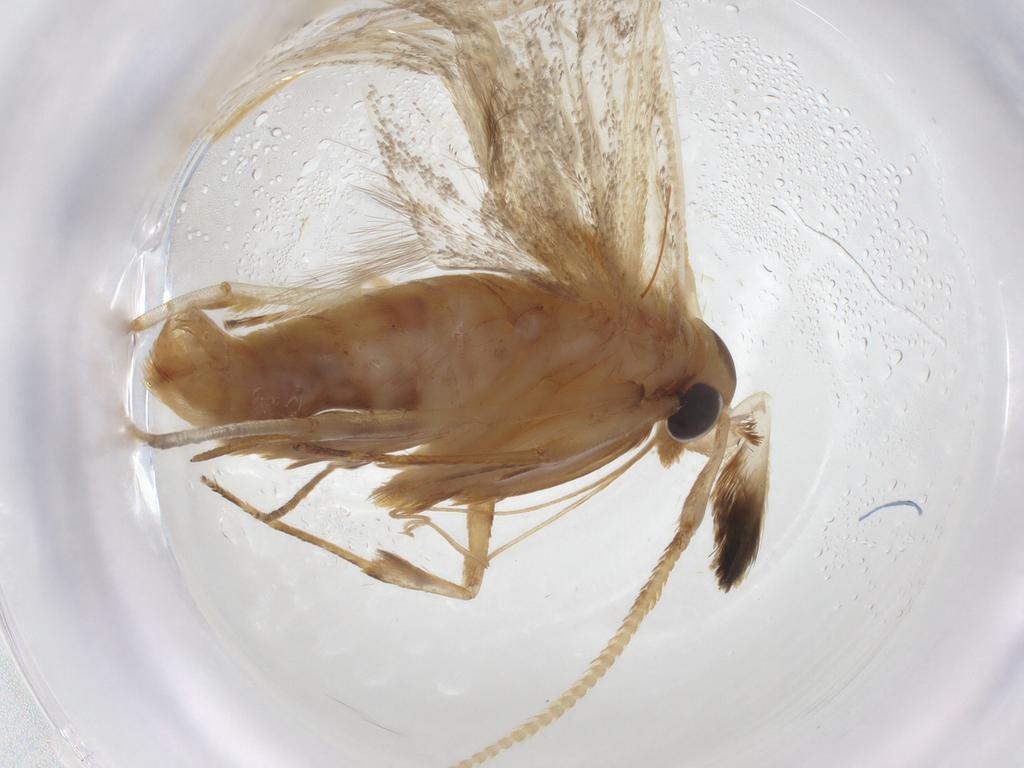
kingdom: Animalia
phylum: Arthropoda
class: Insecta
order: Lepidoptera
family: Lecithoceridae
